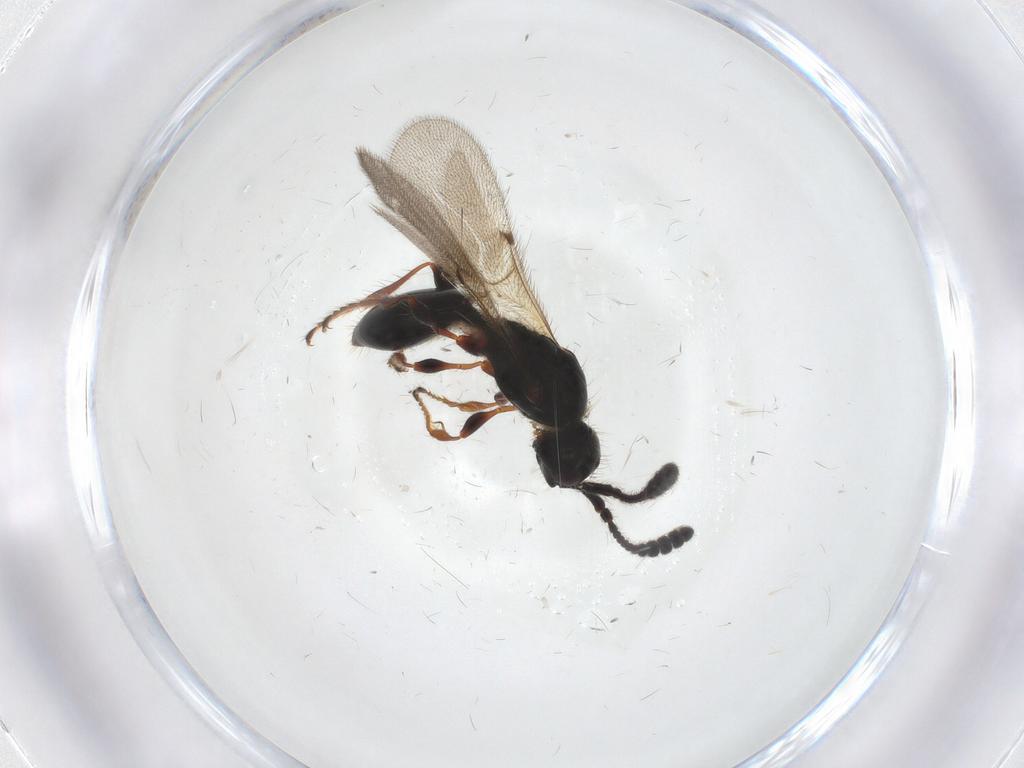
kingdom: Animalia
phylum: Arthropoda
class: Insecta
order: Hymenoptera
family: Diapriidae
